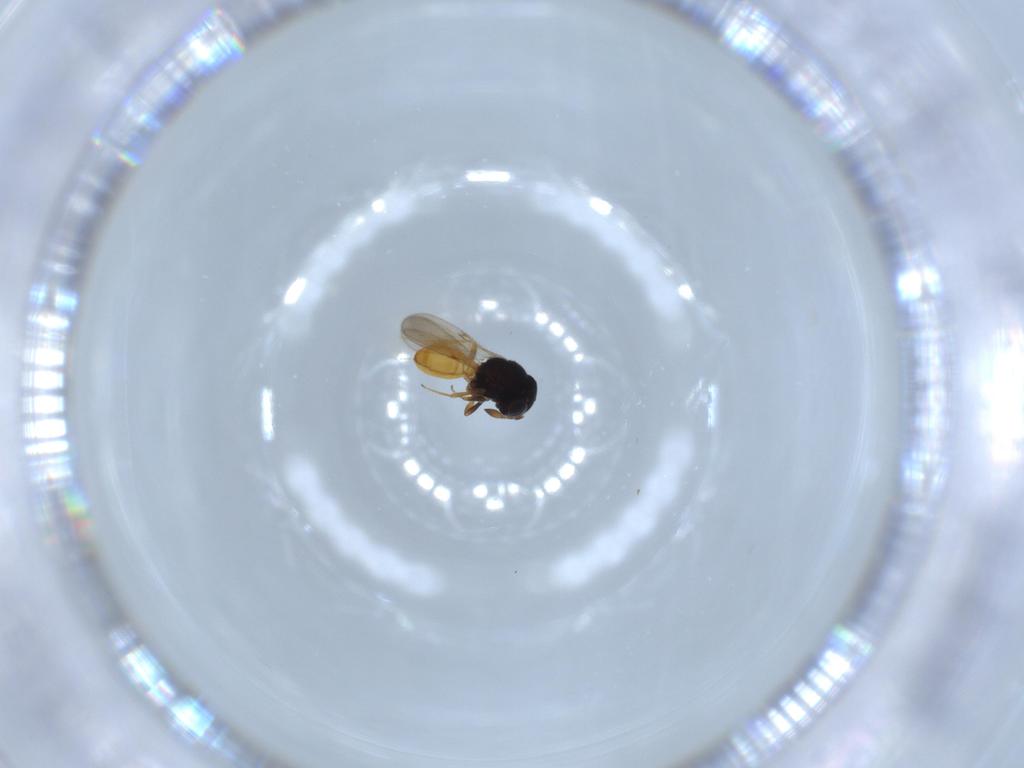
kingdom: Animalia
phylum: Arthropoda
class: Insecta
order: Hymenoptera
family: Scelionidae
